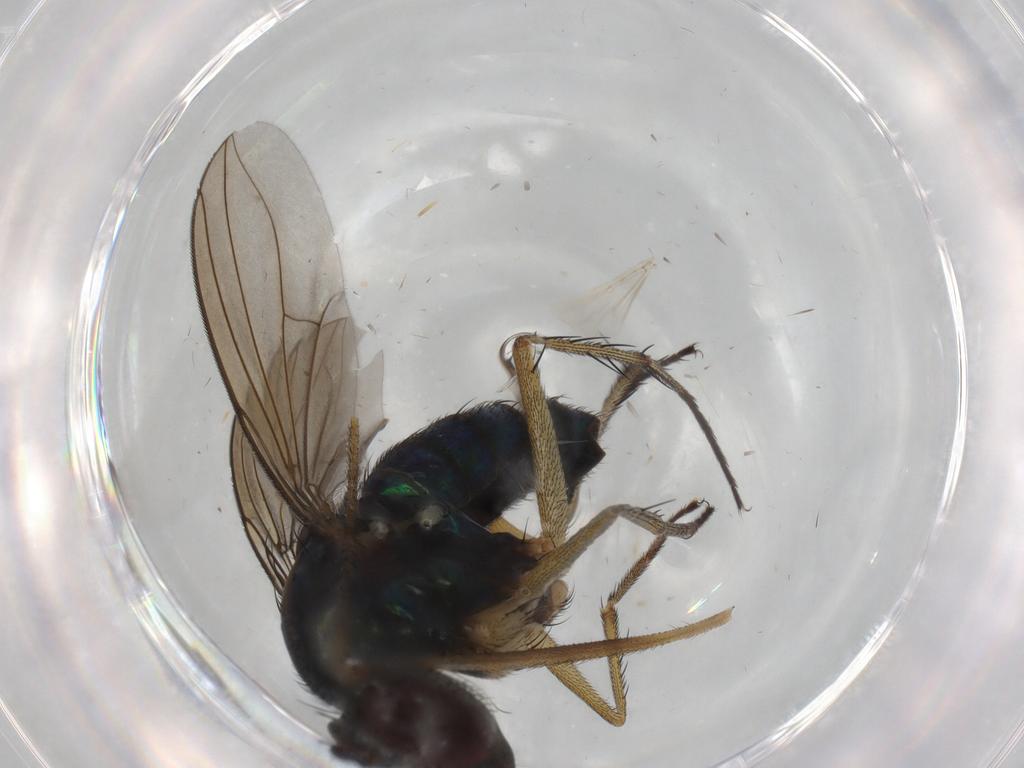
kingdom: Animalia
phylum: Arthropoda
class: Insecta
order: Diptera
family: Dolichopodidae
